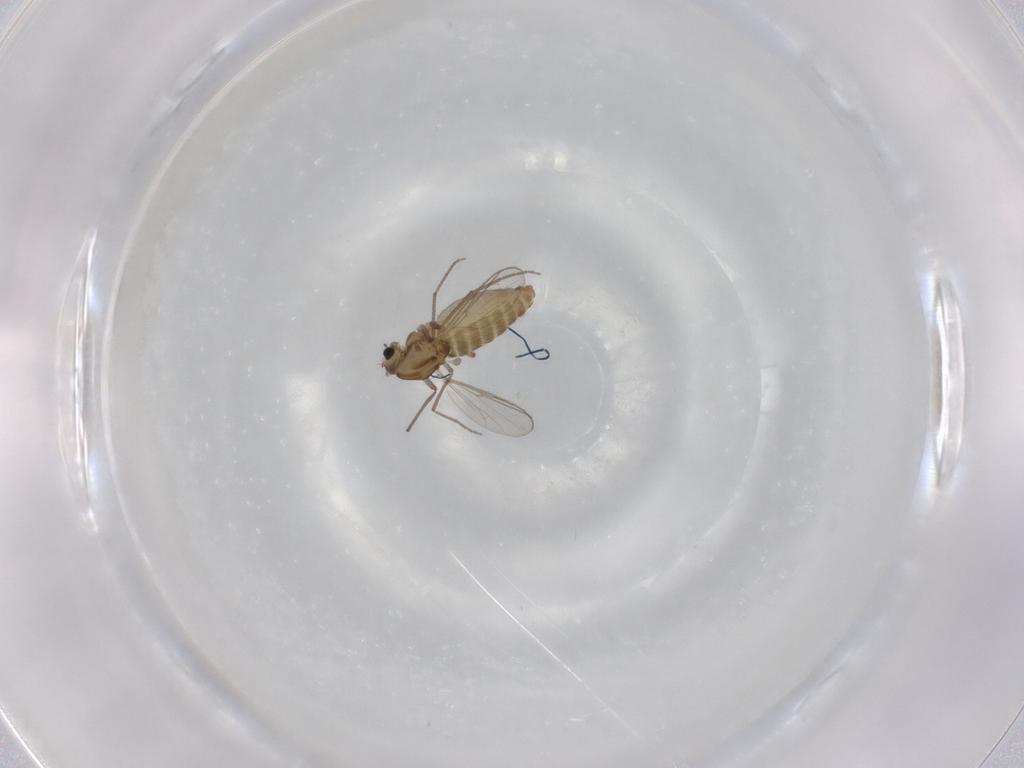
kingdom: Animalia
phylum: Arthropoda
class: Insecta
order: Diptera
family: Chironomidae
